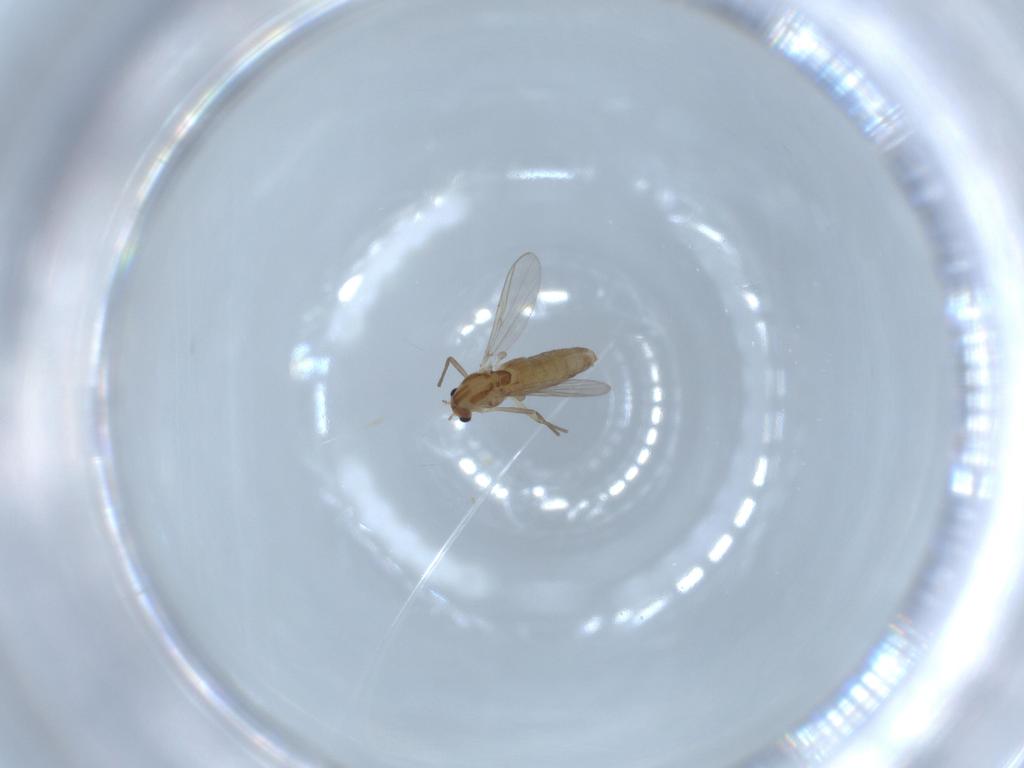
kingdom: Animalia
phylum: Arthropoda
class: Insecta
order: Diptera
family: Chironomidae
